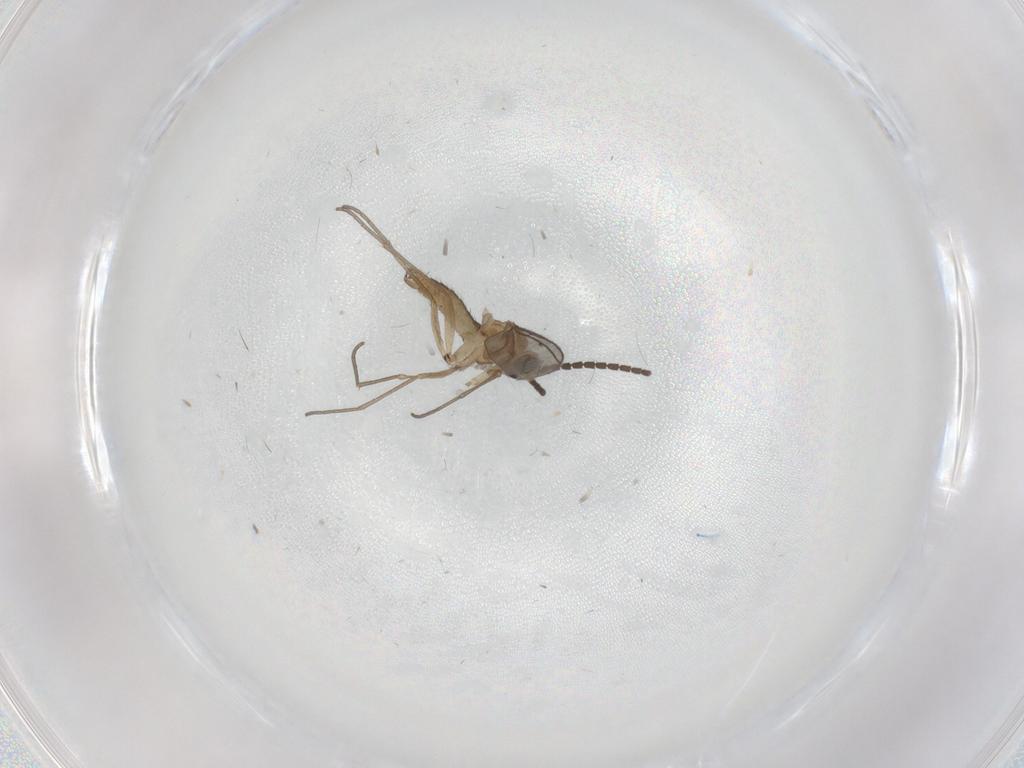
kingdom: Animalia
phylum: Arthropoda
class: Insecta
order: Diptera
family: Sciaridae
